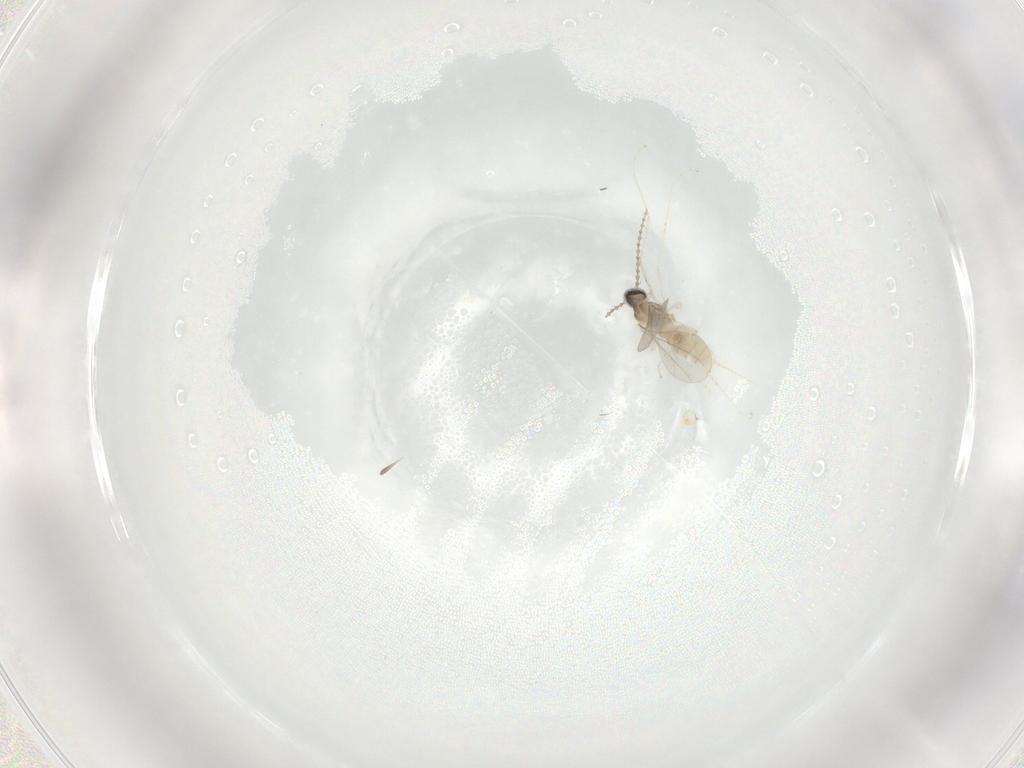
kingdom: Animalia
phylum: Arthropoda
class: Insecta
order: Diptera
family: Cecidomyiidae
